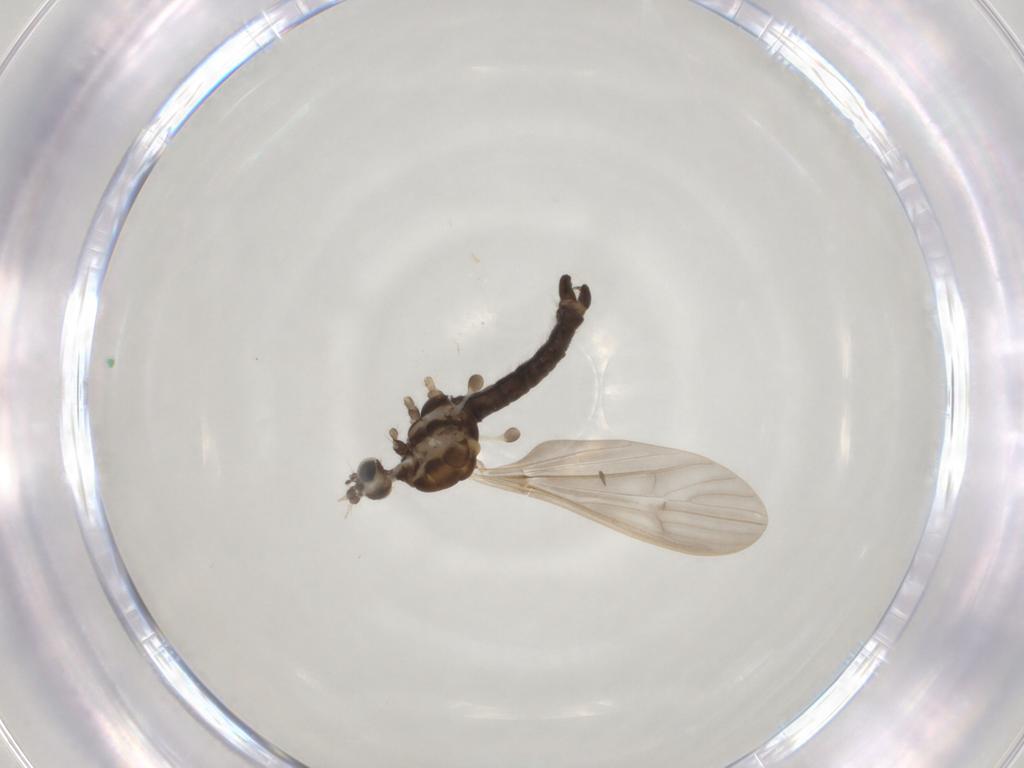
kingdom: Animalia
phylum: Arthropoda
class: Insecta
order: Diptera
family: Limoniidae
